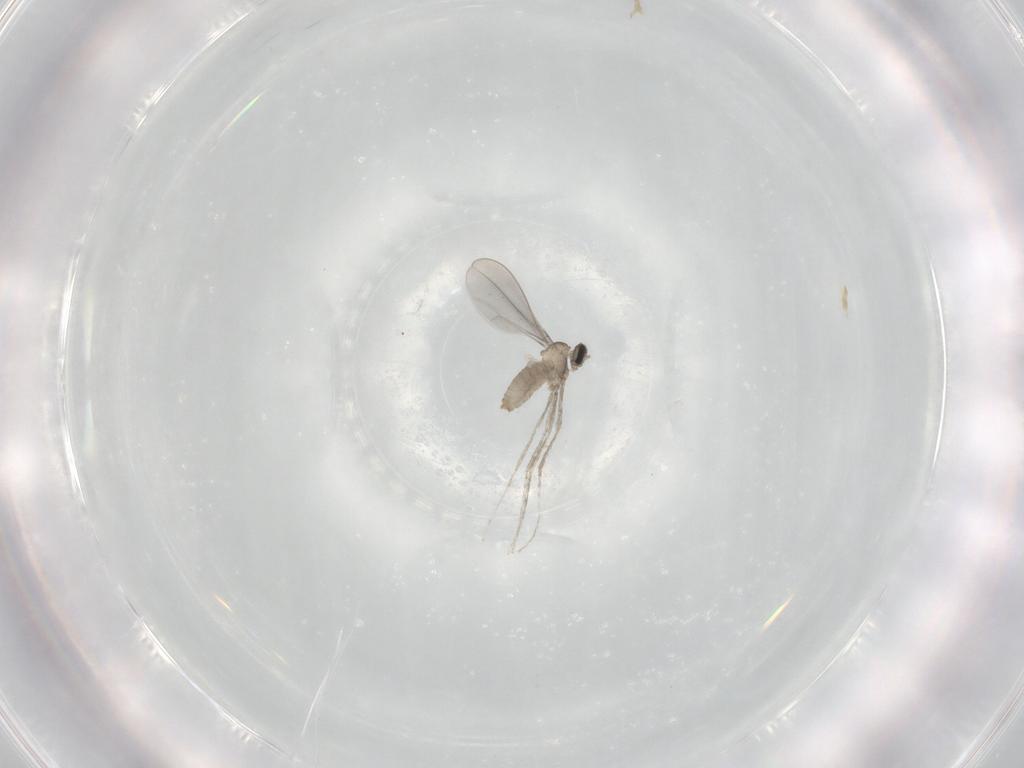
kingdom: Animalia
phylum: Arthropoda
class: Insecta
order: Diptera
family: Cecidomyiidae
